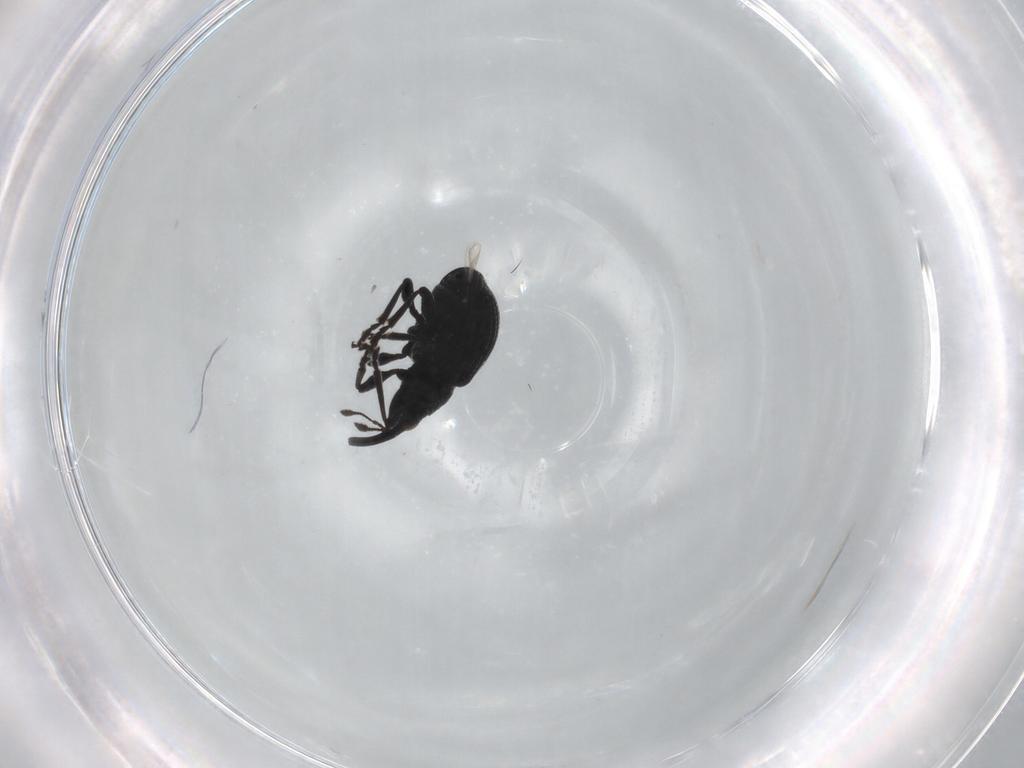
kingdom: Animalia
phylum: Arthropoda
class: Insecta
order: Coleoptera
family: Brentidae
